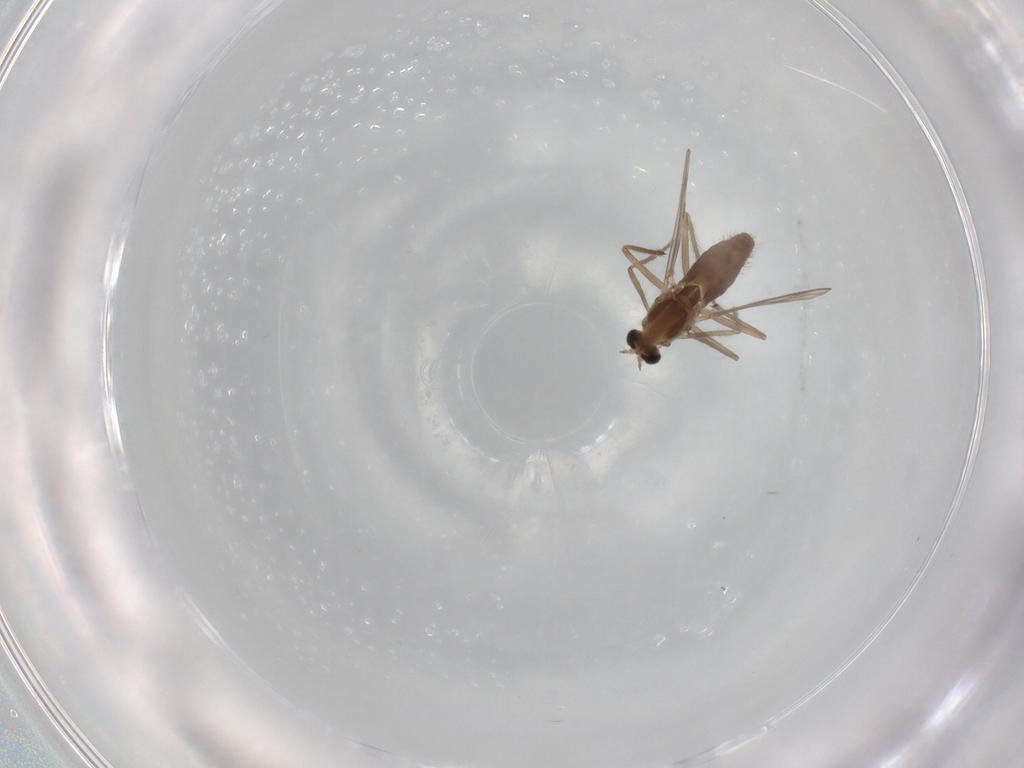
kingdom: Animalia
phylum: Arthropoda
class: Insecta
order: Diptera
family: Chironomidae
